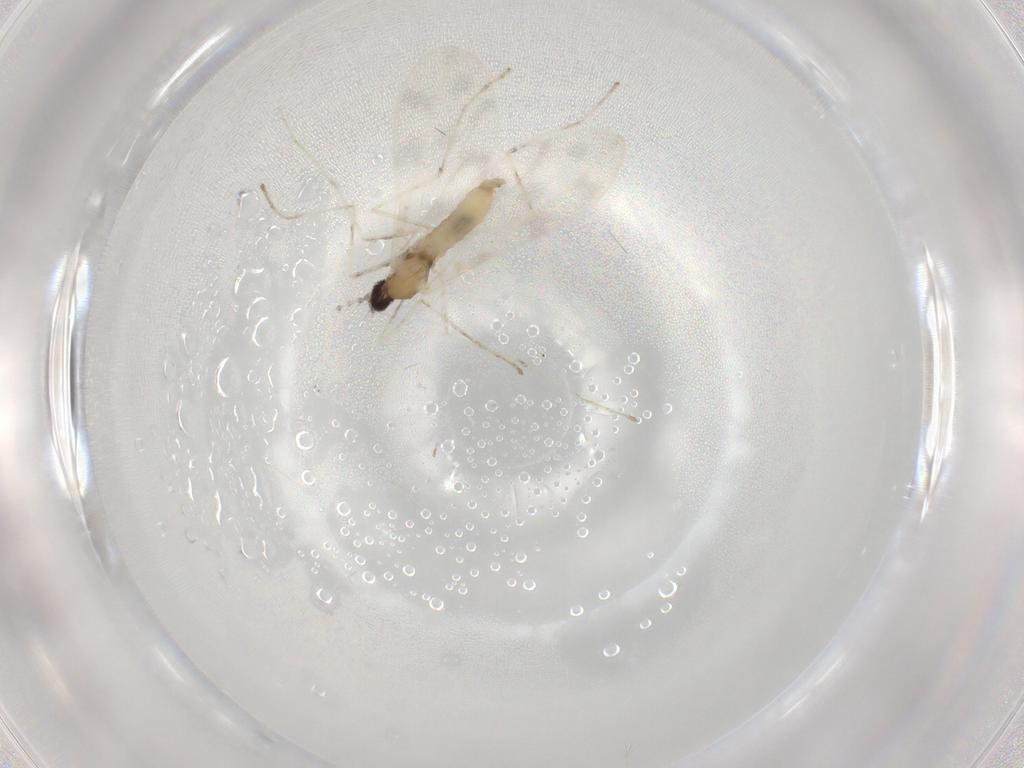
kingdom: Animalia
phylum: Arthropoda
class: Insecta
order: Diptera
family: Cecidomyiidae
